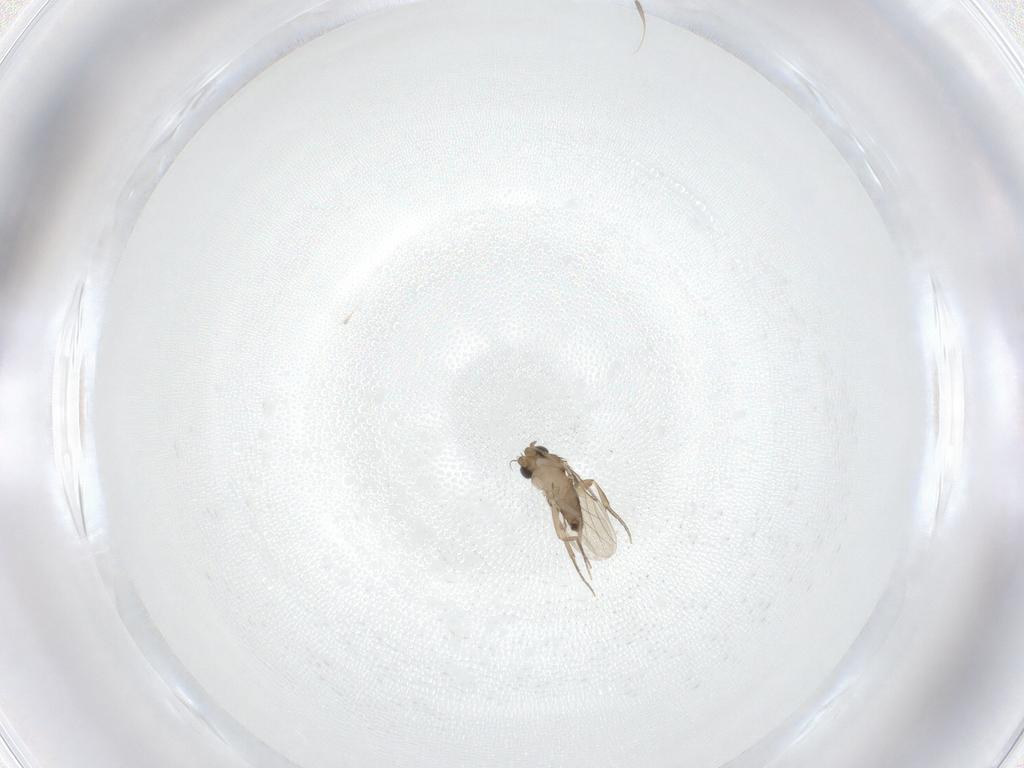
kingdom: Animalia
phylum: Arthropoda
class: Insecta
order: Diptera
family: Phoridae
